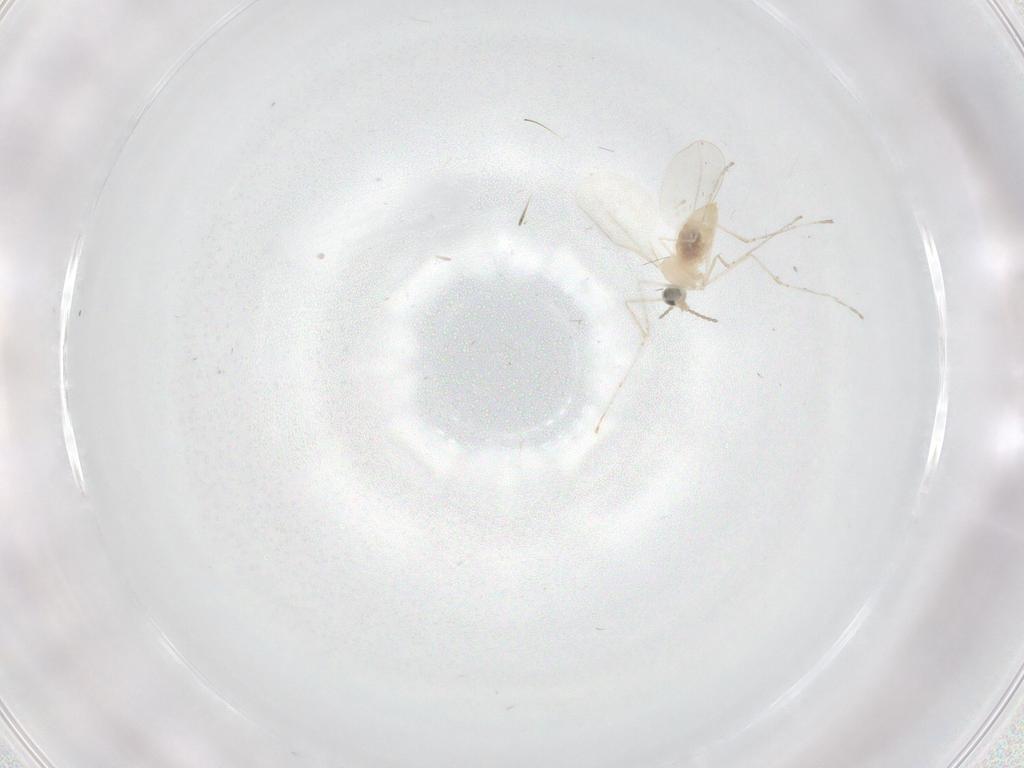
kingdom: Animalia
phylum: Arthropoda
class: Insecta
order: Diptera
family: Cecidomyiidae
